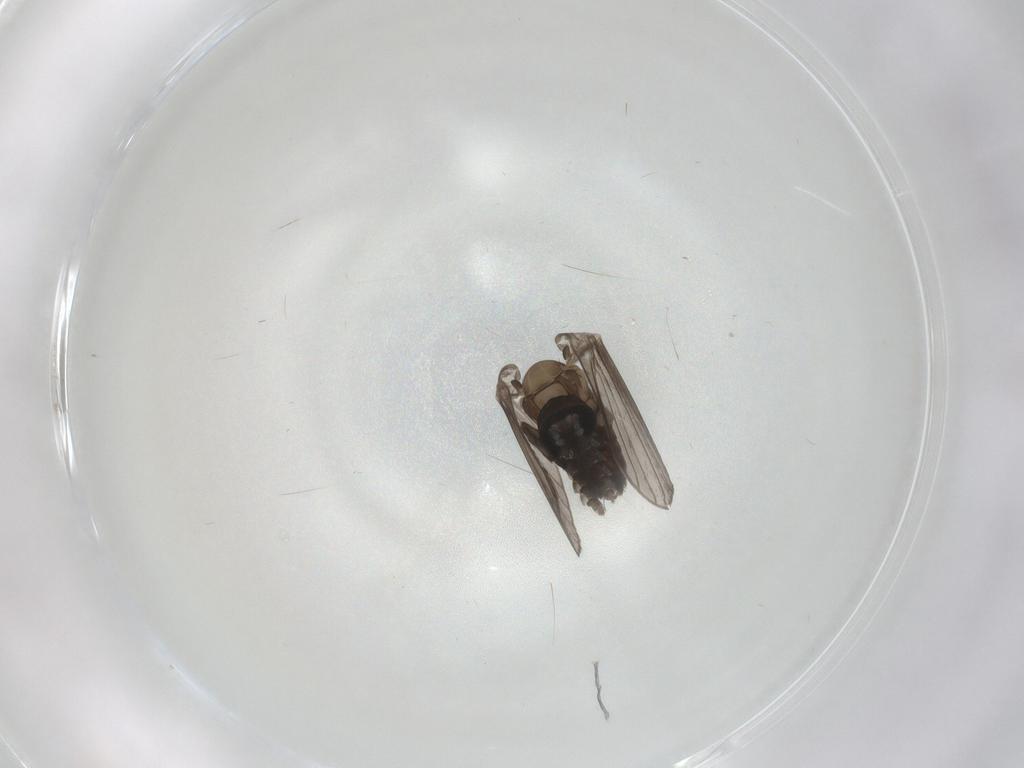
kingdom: Animalia
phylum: Arthropoda
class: Insecta
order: Diptera
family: Psychodidae
